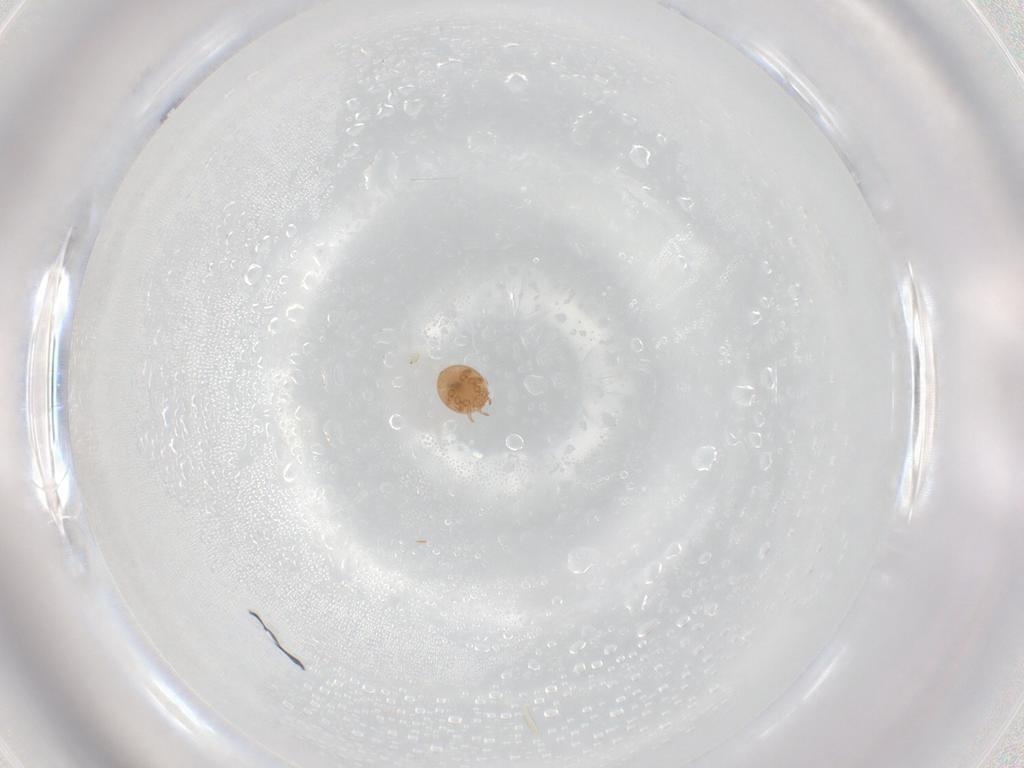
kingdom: Animalia
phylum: Arthropoda
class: Arachnida
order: Mesostigmata
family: Trematuridae
